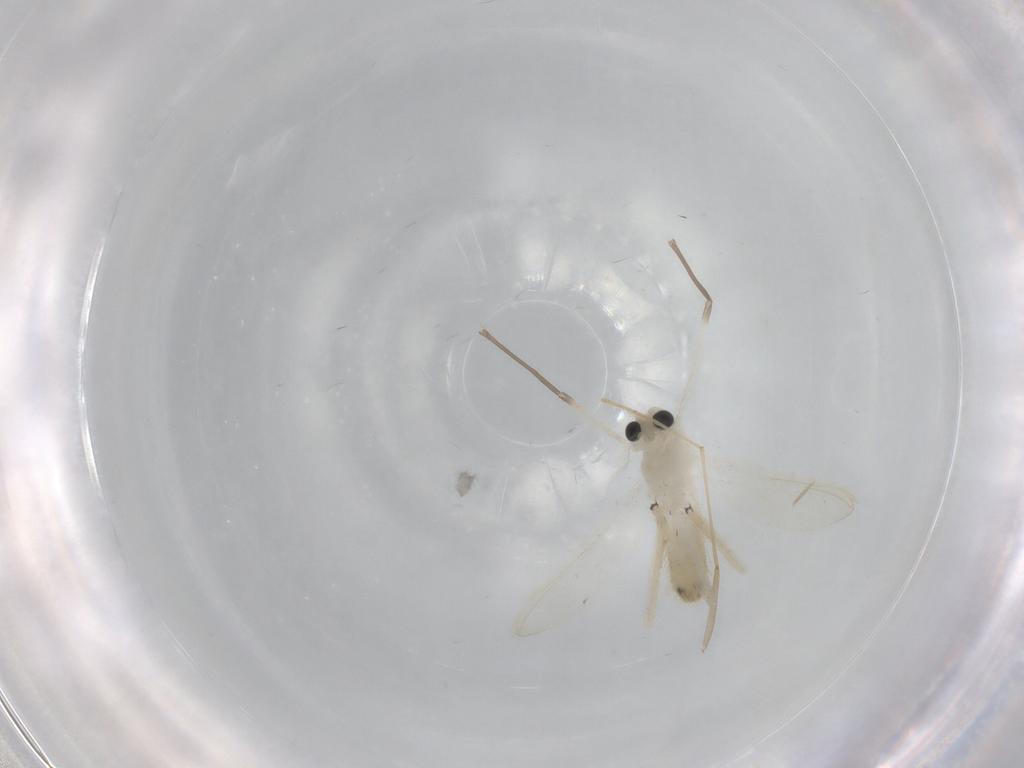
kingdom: Animalia
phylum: Arthropoda
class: Insecta
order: Diptera
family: Chironomidae
